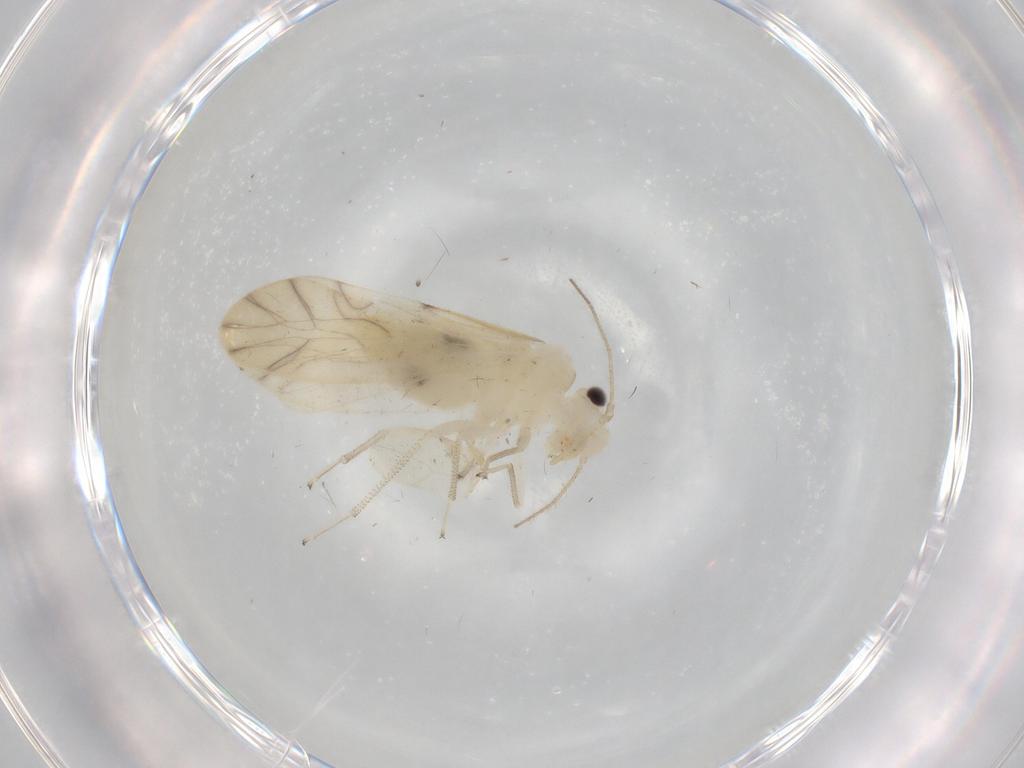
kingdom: Animalia
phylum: Arthropoda
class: Insecta
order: Psocodea
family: Caeciliusidae
